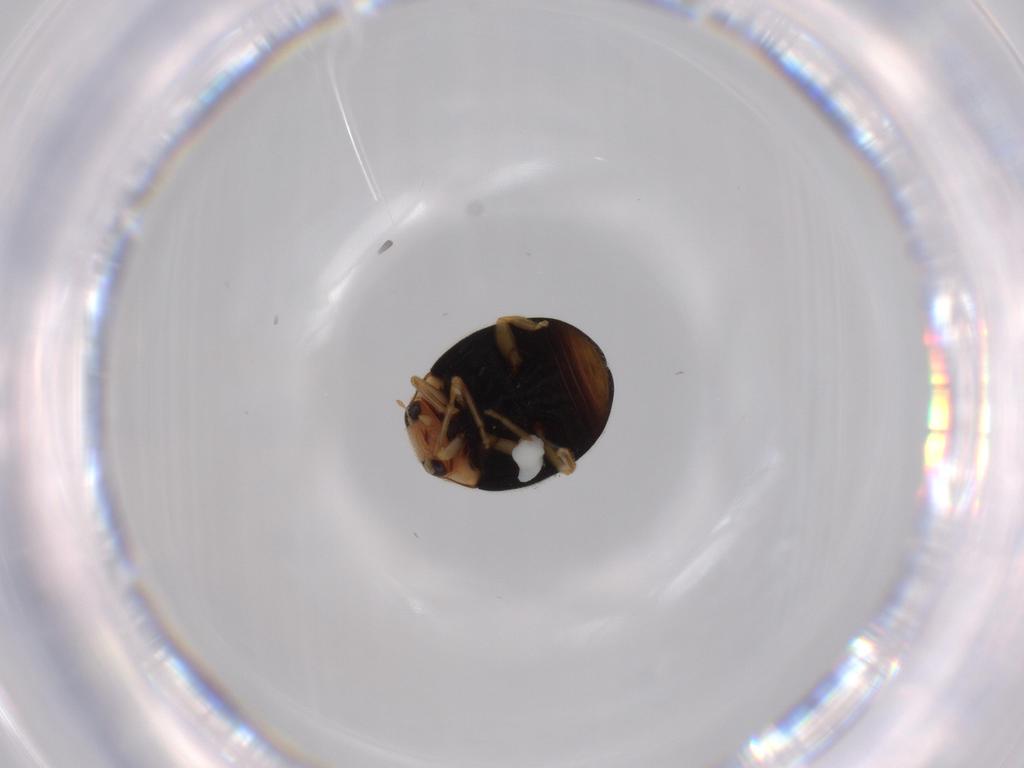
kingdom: Animalia
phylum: Arthropoda
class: Insecta
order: Coleoptera
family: Coccinellidae
